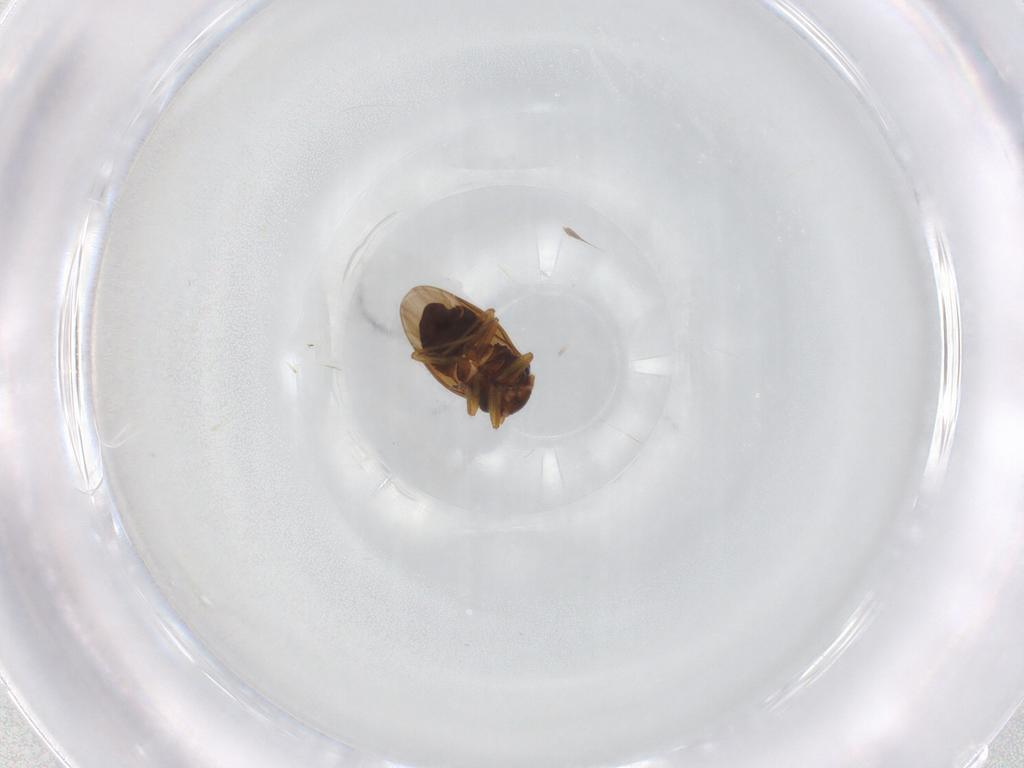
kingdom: Animalia
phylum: Arthropoda
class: Insecta
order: Hemiptera
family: Schizopteridae
